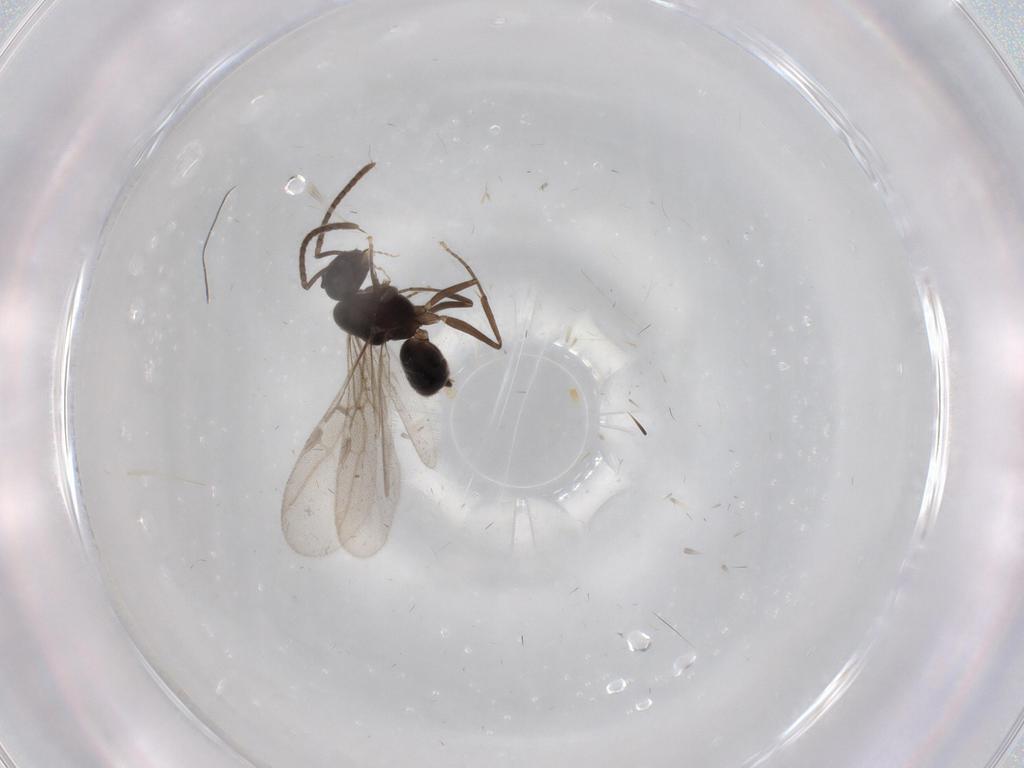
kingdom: Animalia
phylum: Arthropoda
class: Insecta
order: Hymenoptera
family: Formicidae
